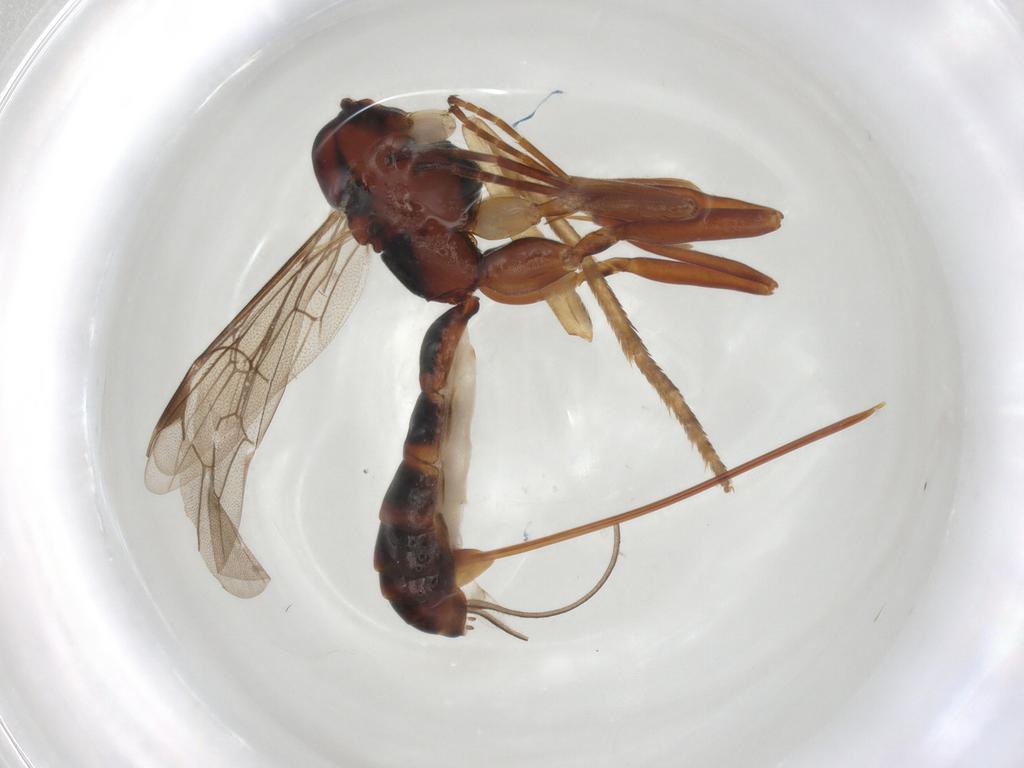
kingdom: Animalia
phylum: Arthropoda
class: Insecta
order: Hymenoptera
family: Ichneumonidae
